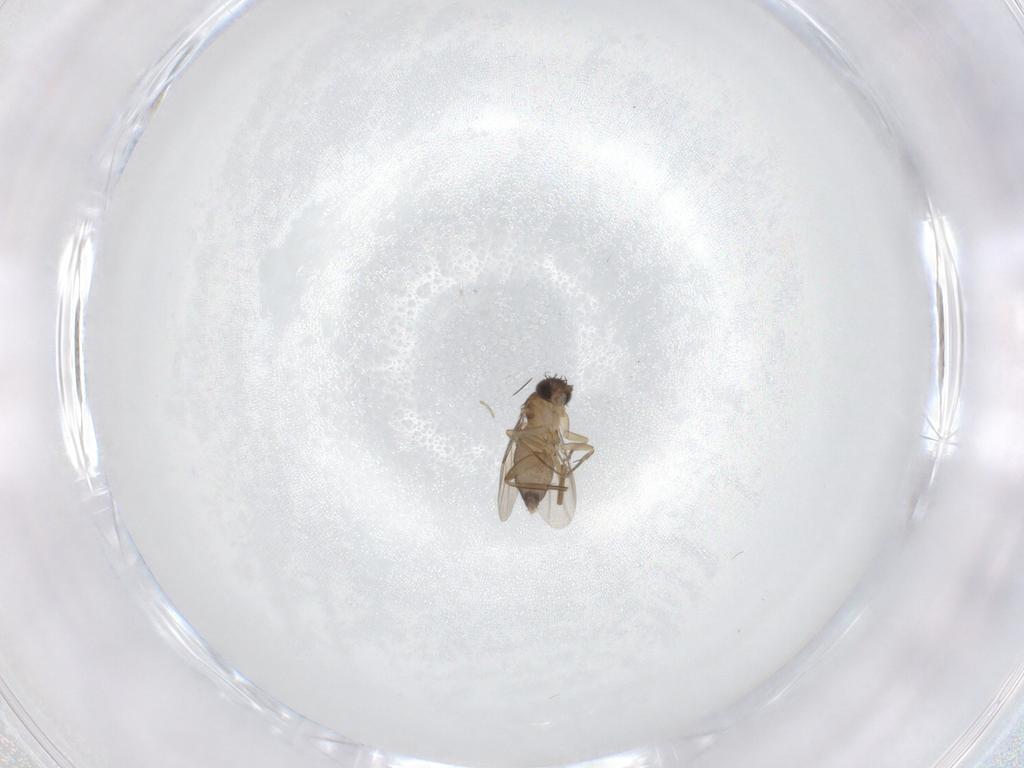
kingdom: Animalia
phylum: Arthropoda
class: Insecta
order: Diptera
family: Phoridae
